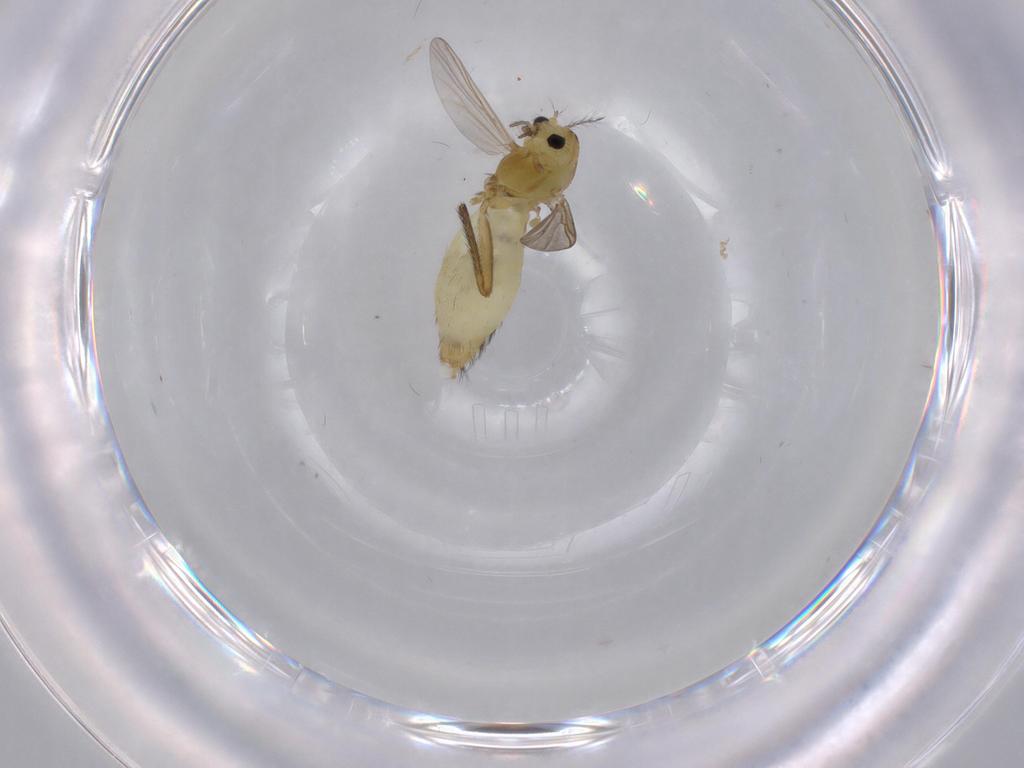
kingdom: Animalia
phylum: Arthropoda
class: Insecta
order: Diptera
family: Chironomidae
